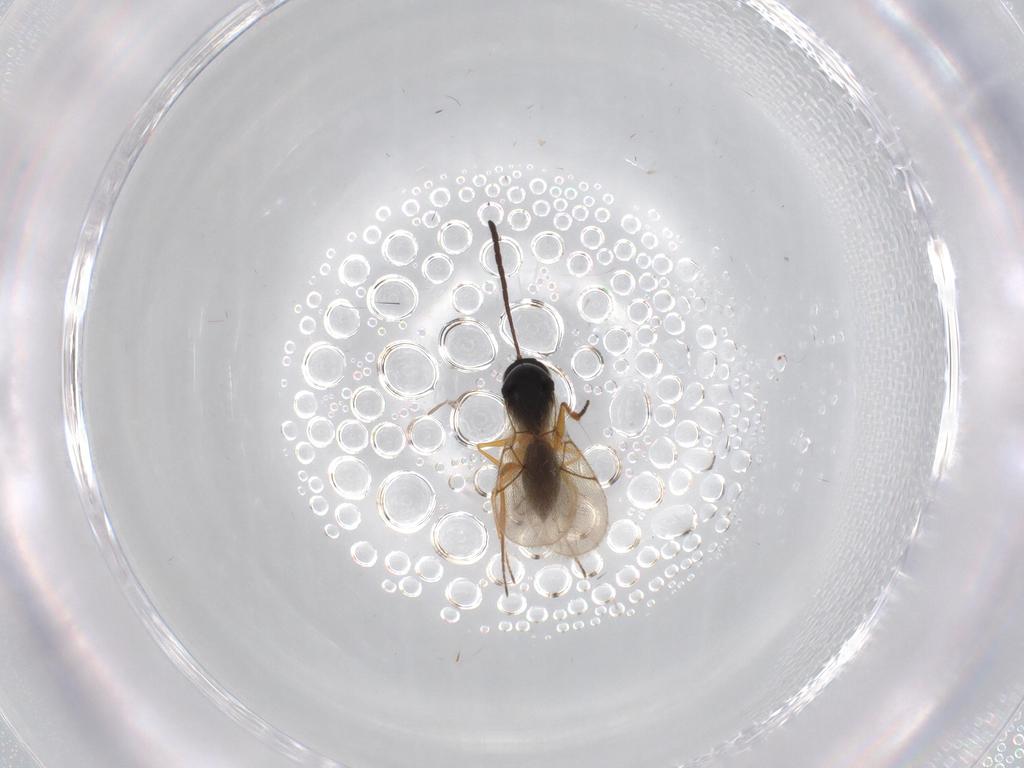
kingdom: Animalia
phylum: Arthropoda
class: Insecta
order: Hymenoptera
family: Figitidae
